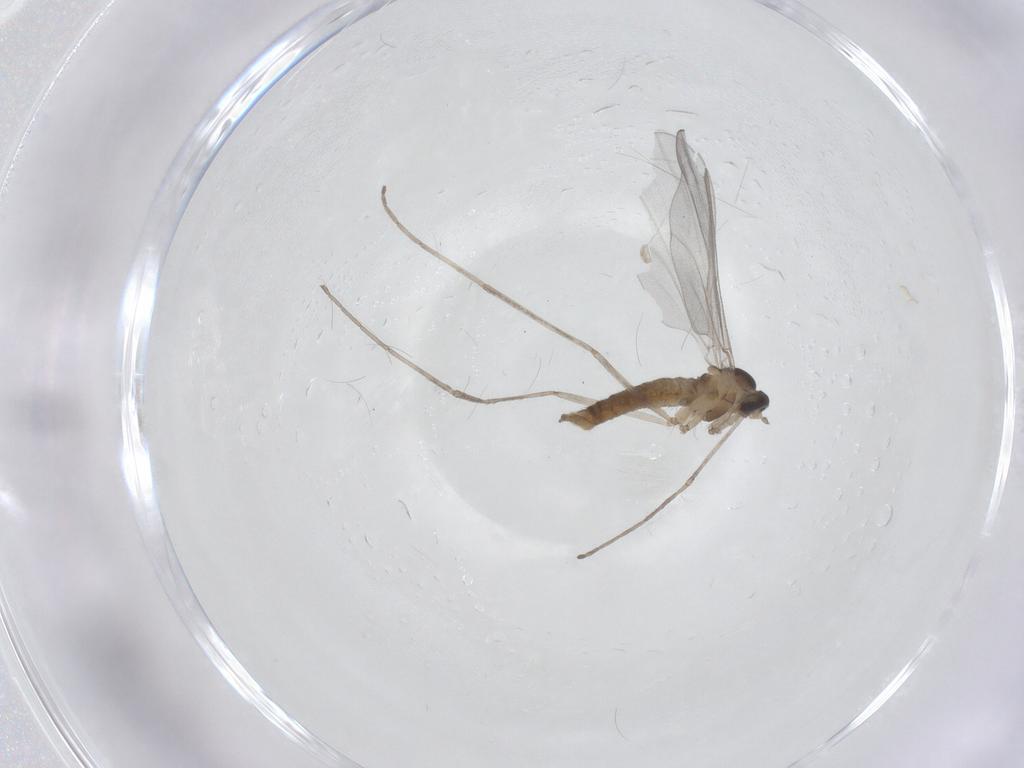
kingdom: Animalia
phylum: Arthropoda
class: Insecta
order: Diptera
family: Cecidomyiidae
